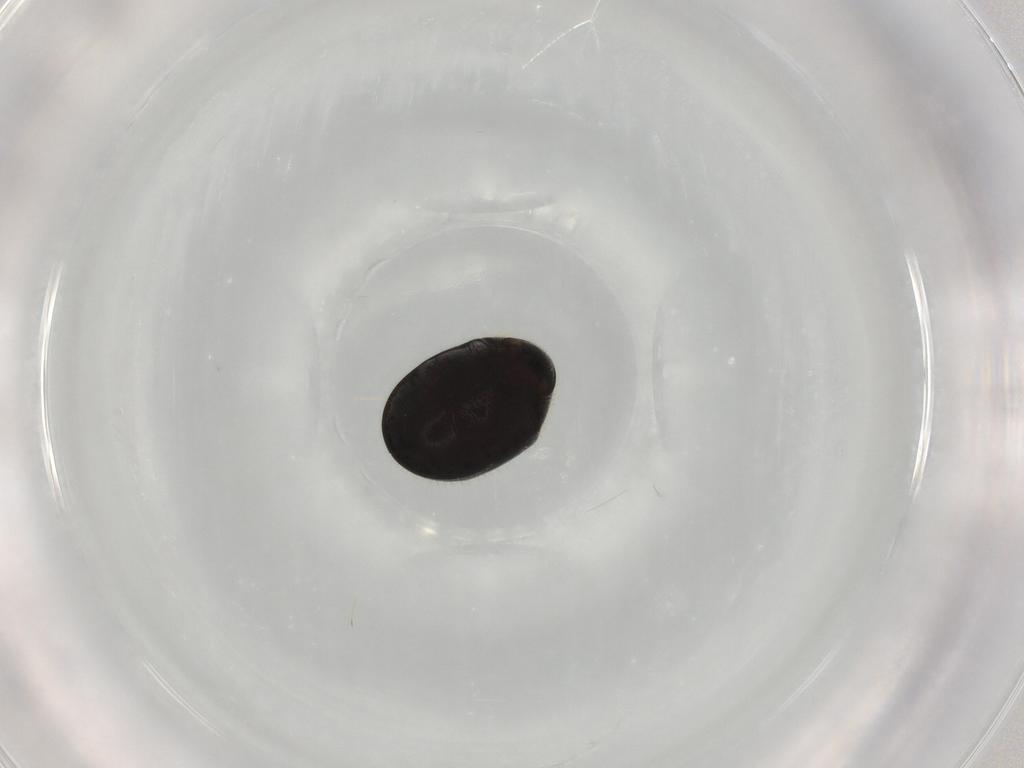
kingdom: Animalia
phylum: Arthropoda
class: Insecta
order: Coleoptera
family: Ptinidae
